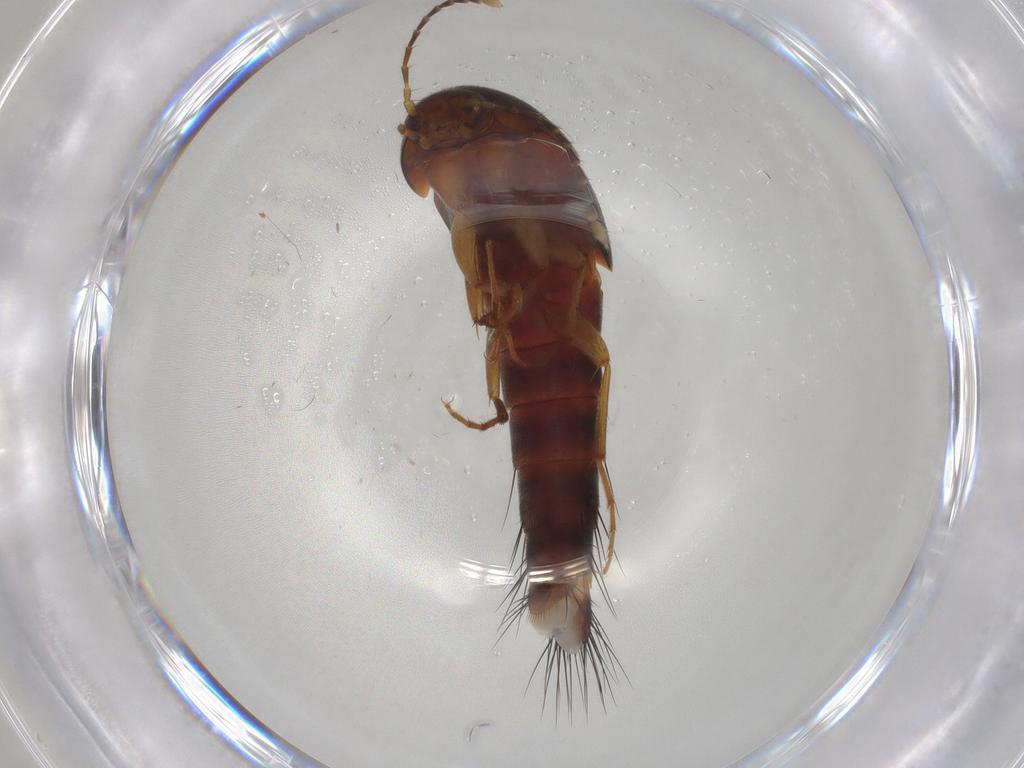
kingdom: Animalia
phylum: Arthropoda
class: Insecta
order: Coleoptera
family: Staphylinidae
